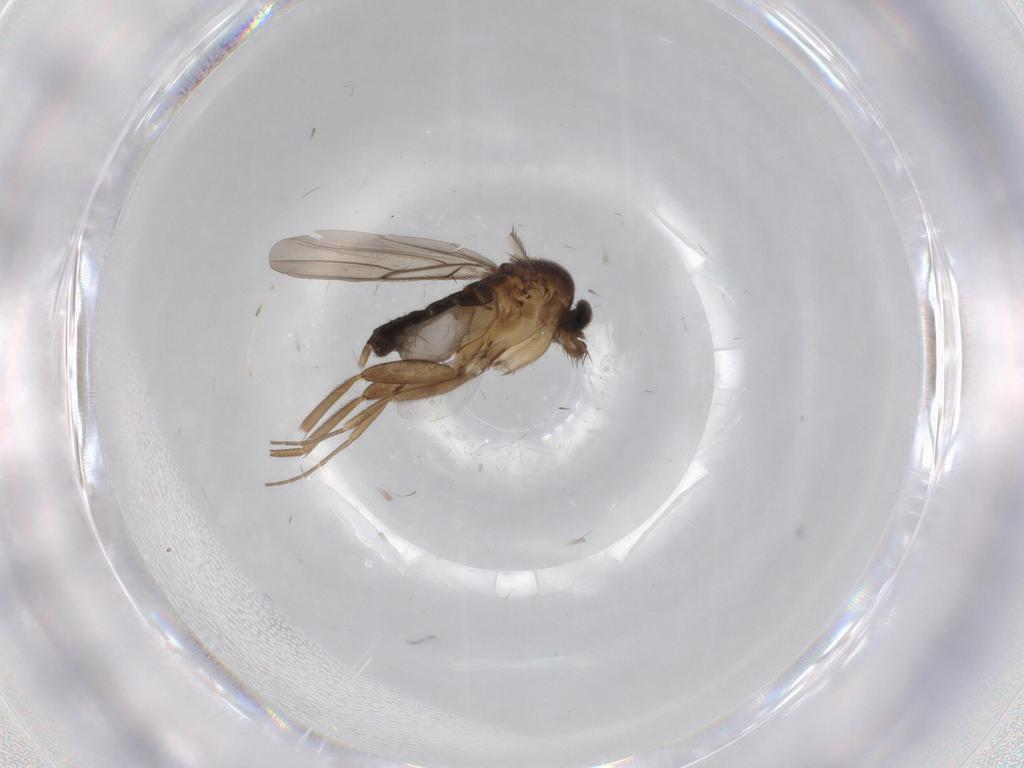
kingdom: Animalia
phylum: Arthropoda
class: Insecta
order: Diptera
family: Chironomidae
